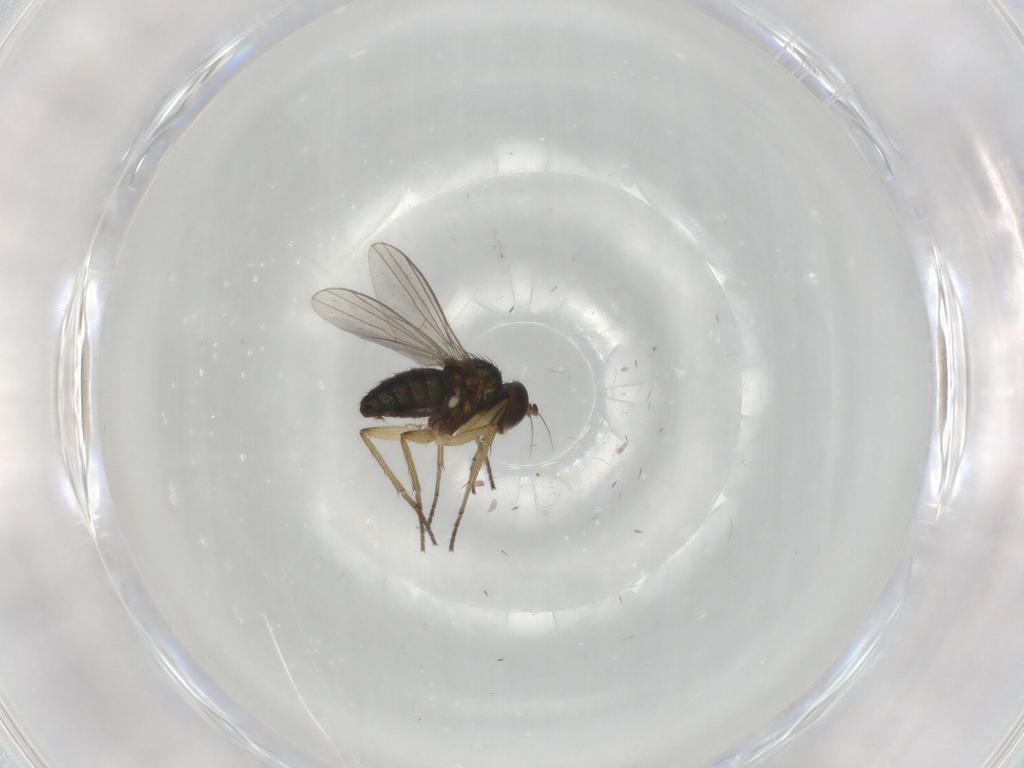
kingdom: Animalia
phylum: Arthropoda
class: Insecta
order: Diptera
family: Dolichopodidae
